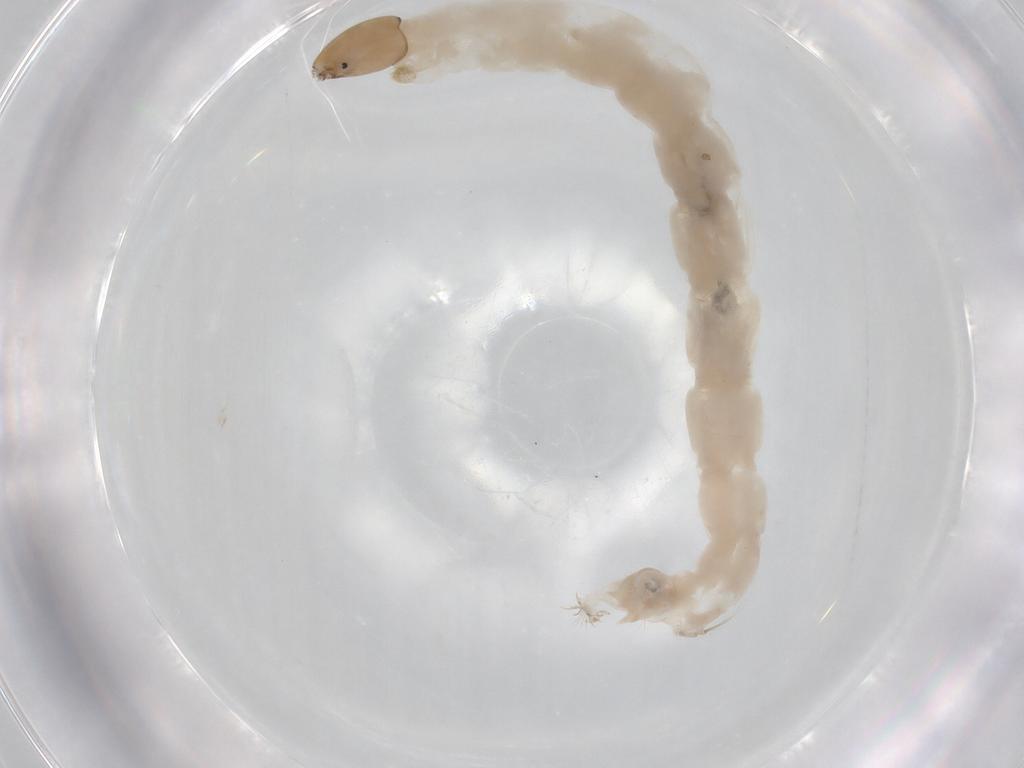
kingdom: Animalia
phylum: Arthropoda
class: Insecta
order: Diptera
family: Chironomidae
